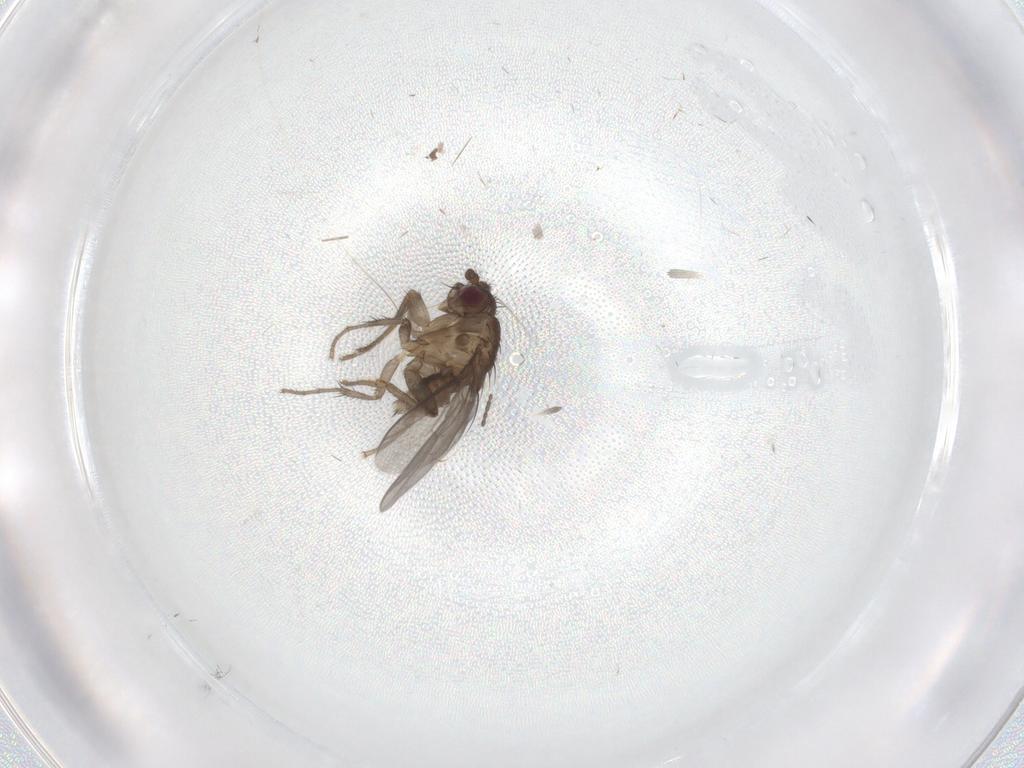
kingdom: Animalia
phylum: Arthropoda
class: Insecta
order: Diptera
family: Sphaeroceridae
